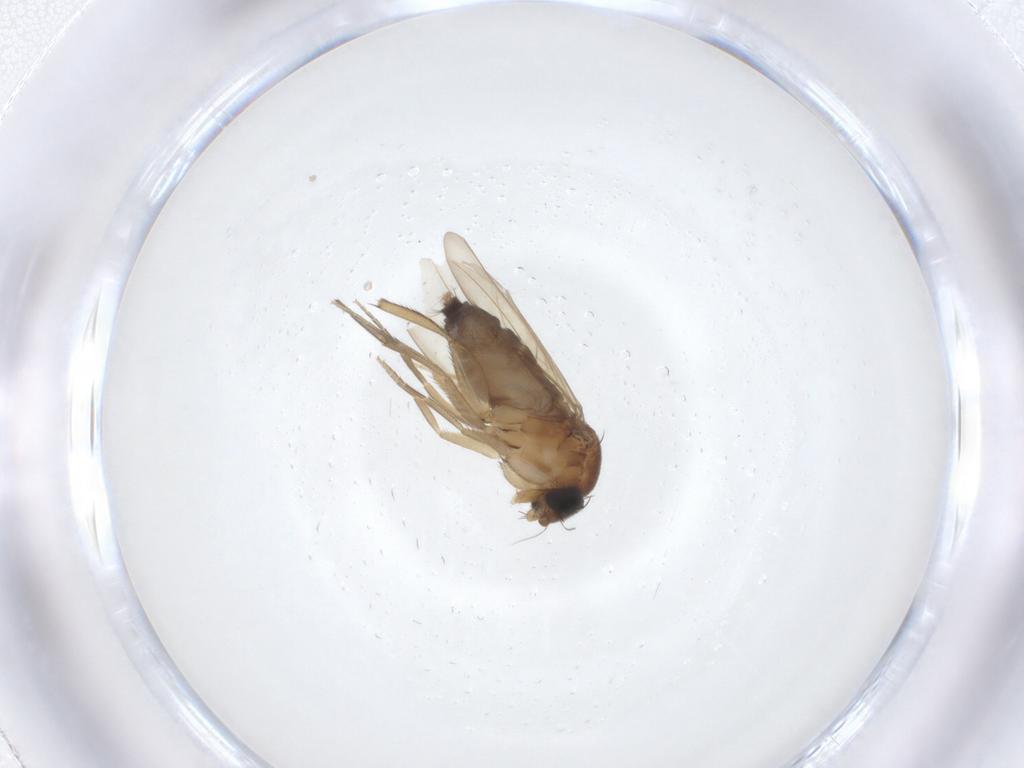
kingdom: Animalia
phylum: Arthropoda
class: Insecta
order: Diptera
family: Phoridae
